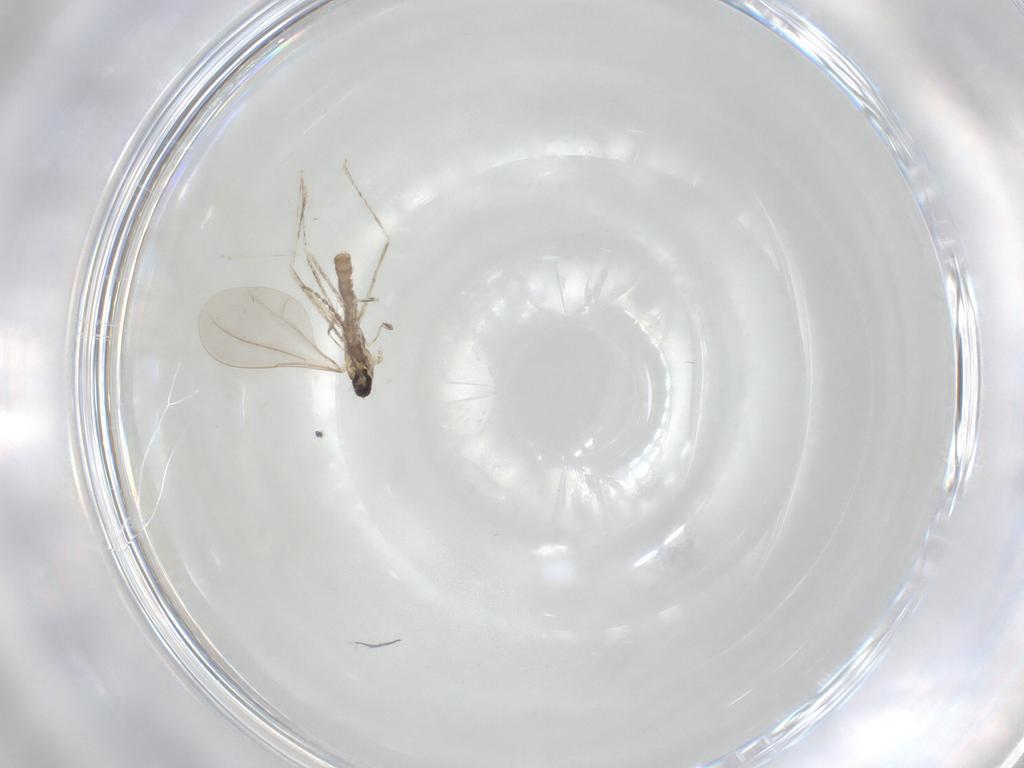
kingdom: Animalia
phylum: Arthropoda
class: Insecta
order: Diptera
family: Cecidomyiidae
